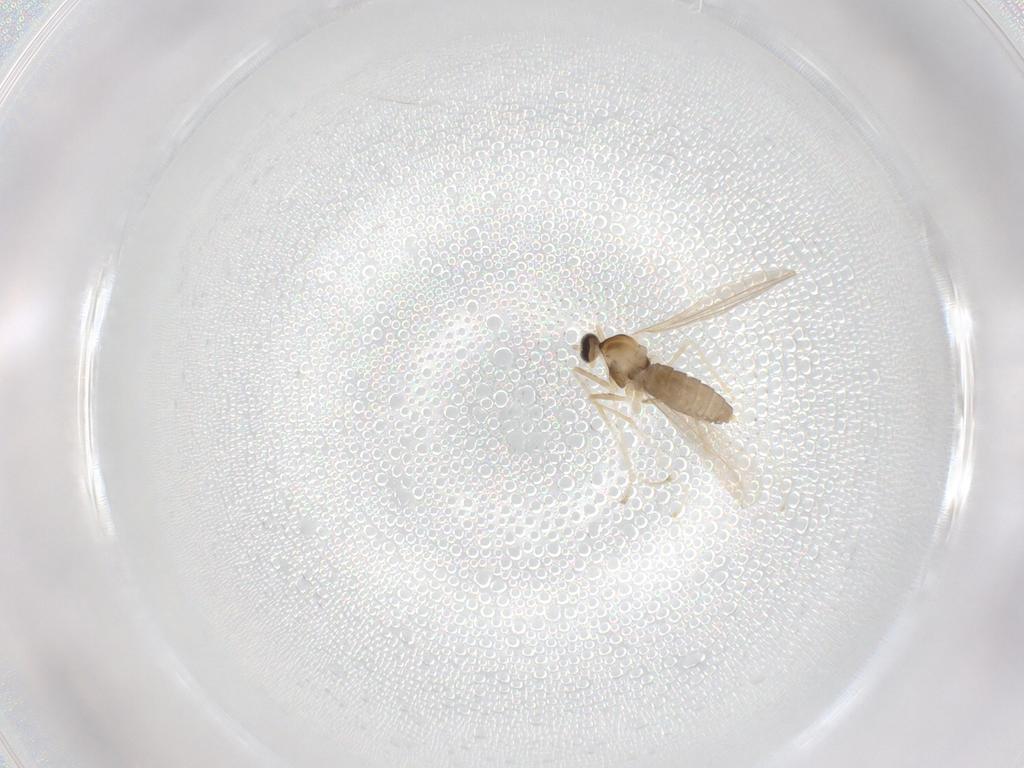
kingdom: Animalia
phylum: Arthropoda
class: Insecta
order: Diptera
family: Cecidomyiidae
